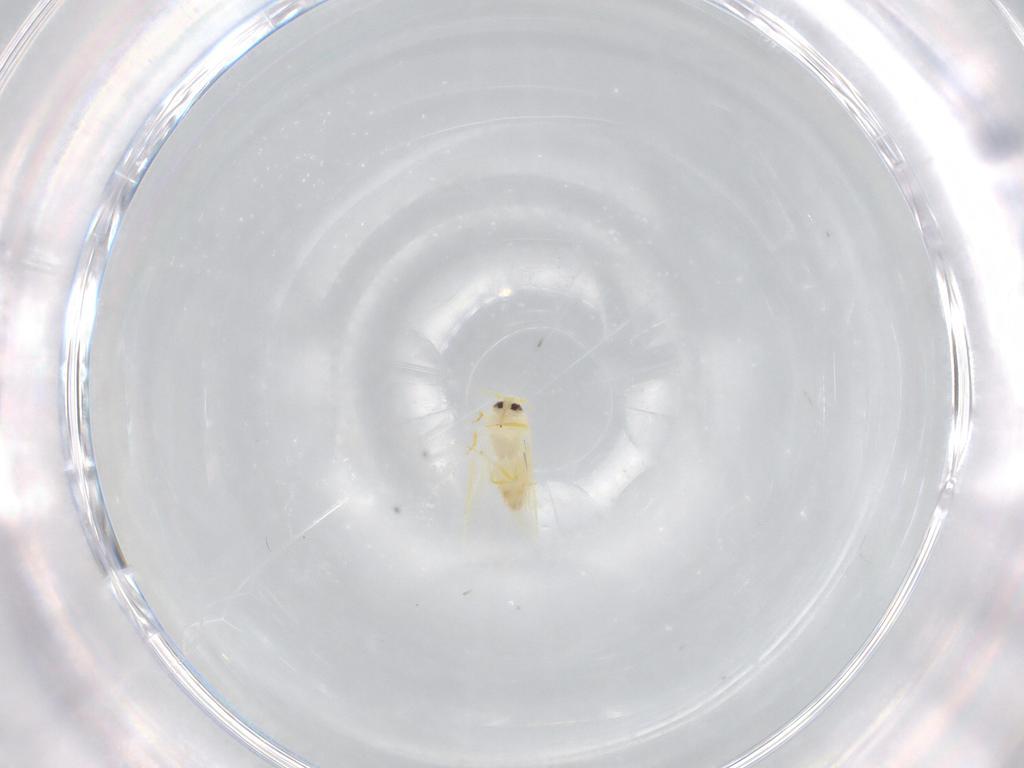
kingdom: Animalia
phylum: Arthropoda
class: Insecta
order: Hemiptera
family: Aleyrodidae
